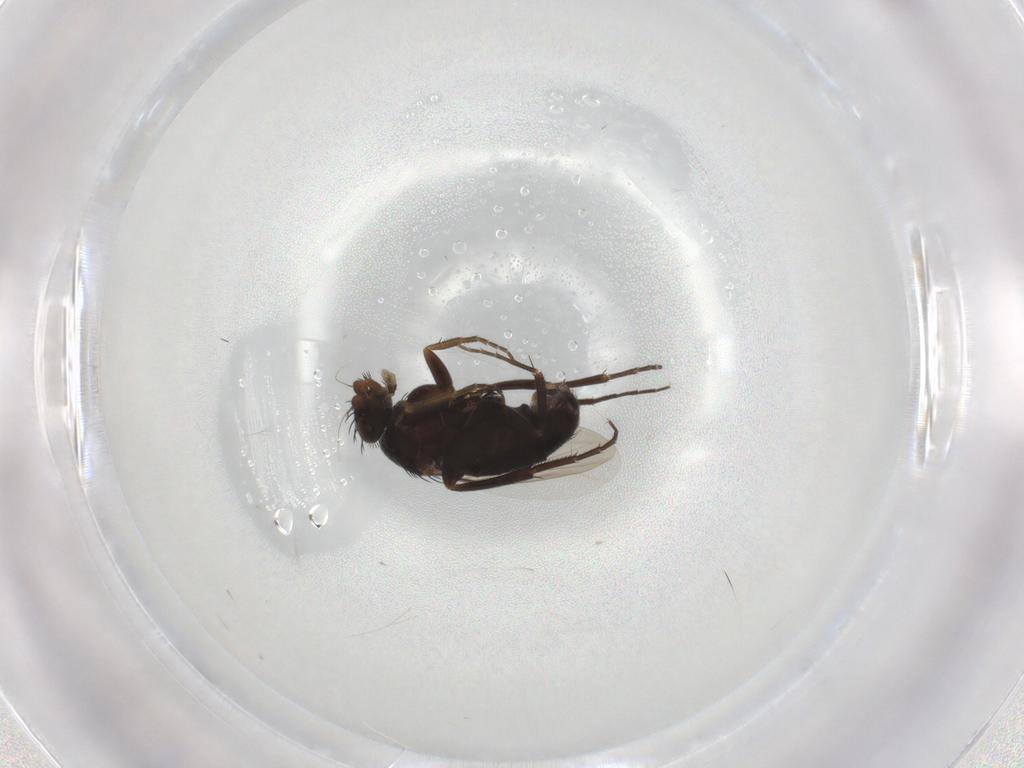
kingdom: Animalia
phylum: Arthropoda
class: Insecta
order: Diptera
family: Phoridae
